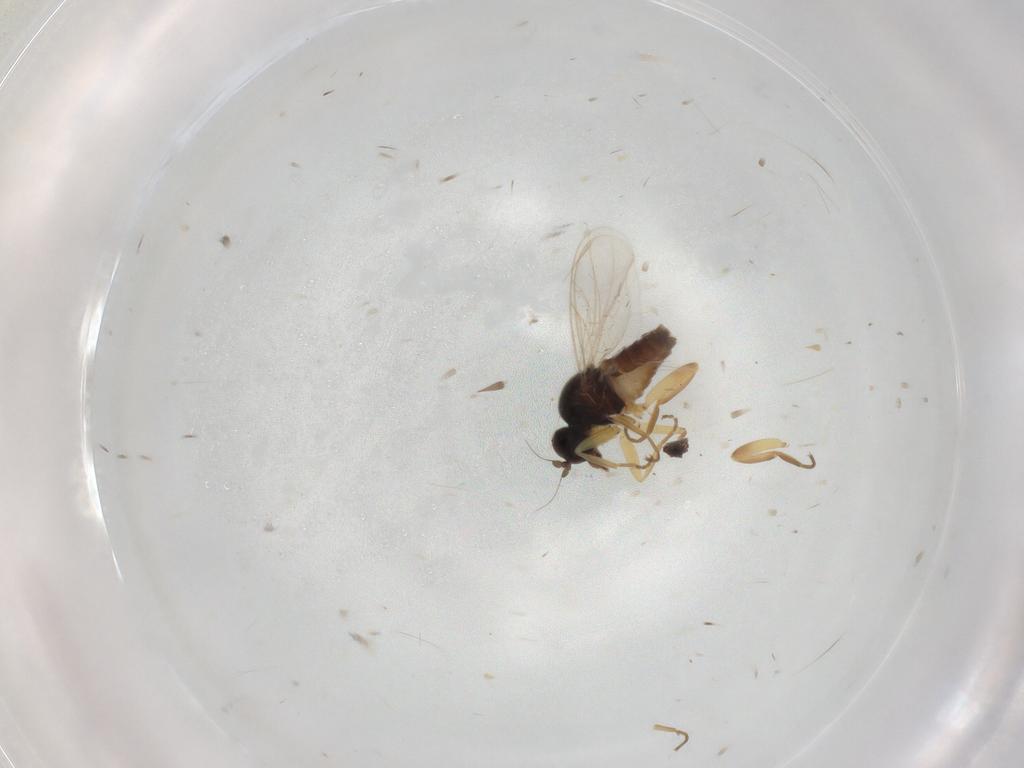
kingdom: Animalia
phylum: Arthropoda
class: Insecta
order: Diptera
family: Hybotidae
